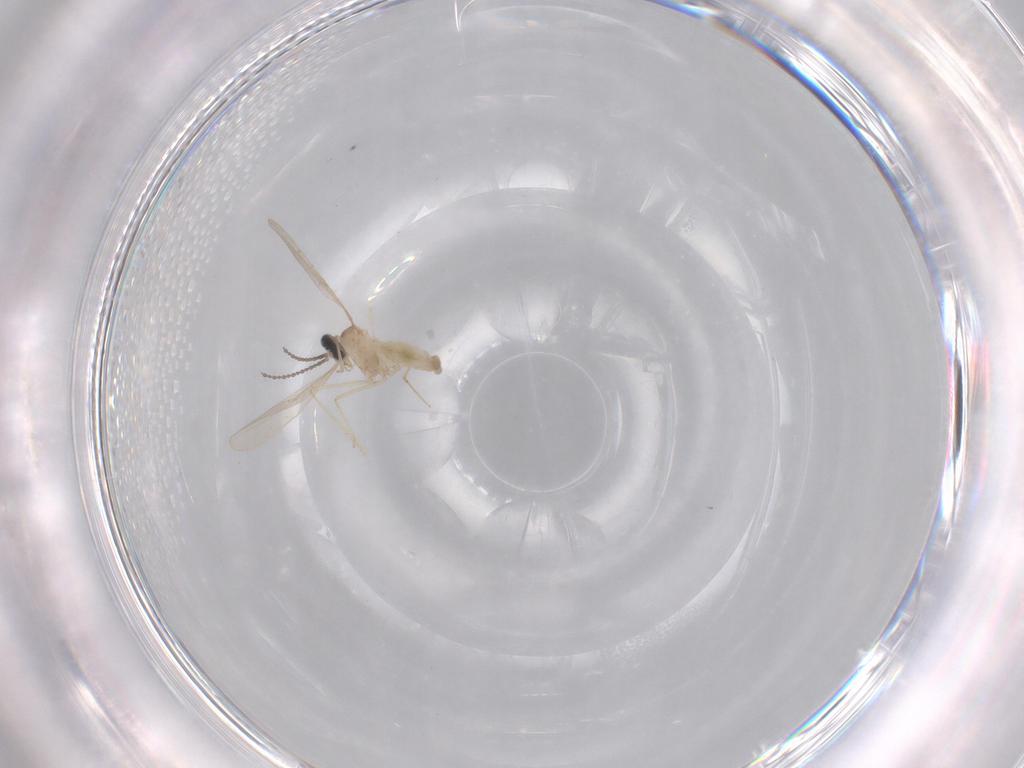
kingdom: Animalia
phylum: Arthropoda
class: Insecta
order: Diptera
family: Cecidomyiidae
